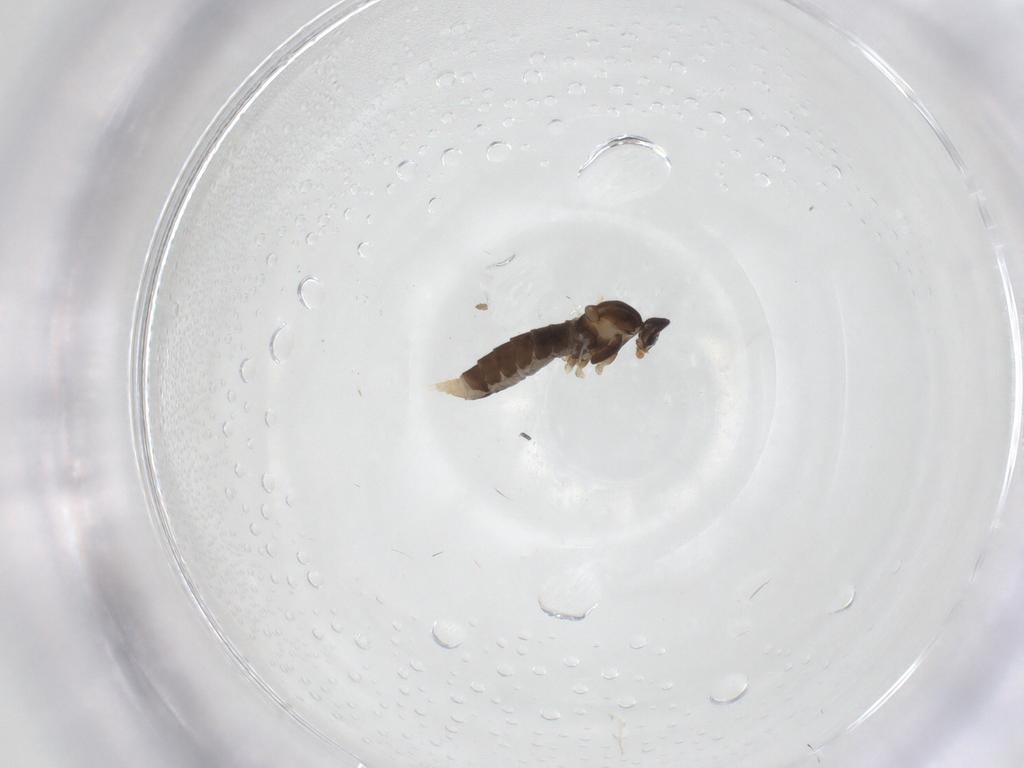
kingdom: Animalia
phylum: Arthropoda
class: Insecta
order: Diptera
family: Cecidomyiidae
